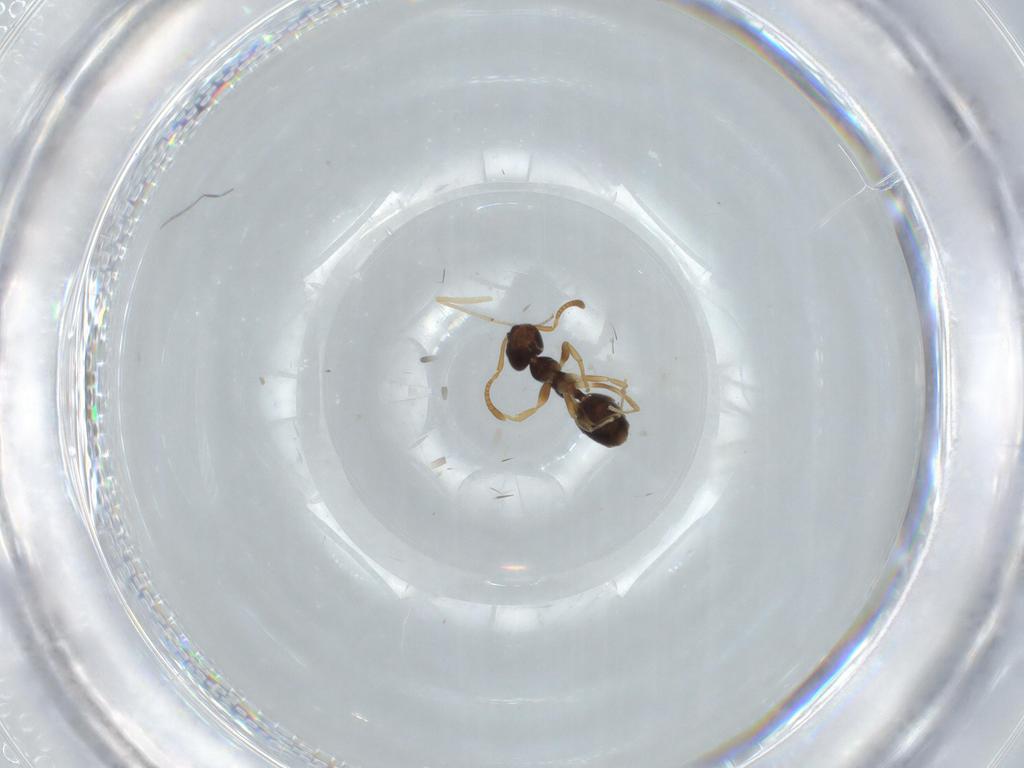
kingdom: Animalia
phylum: Arthropoda
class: Insecta
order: Hymenoptera
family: Formicidae
